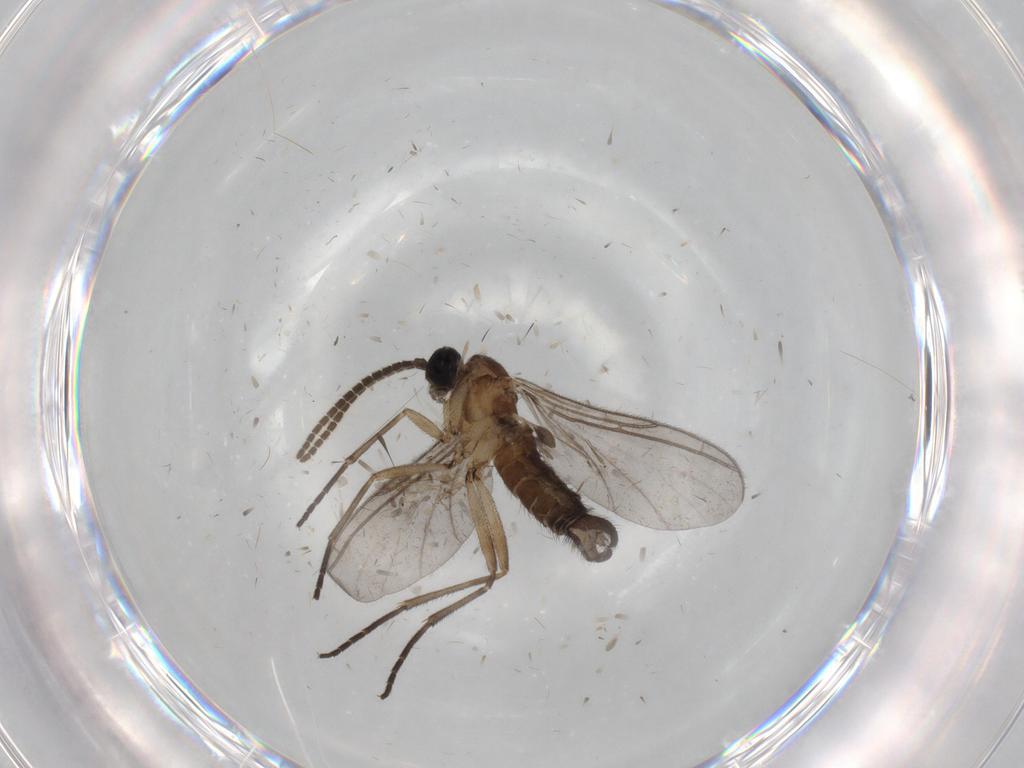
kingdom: Animalia
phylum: Arthropoda
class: Insecta
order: Diptera
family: Sciaridae
